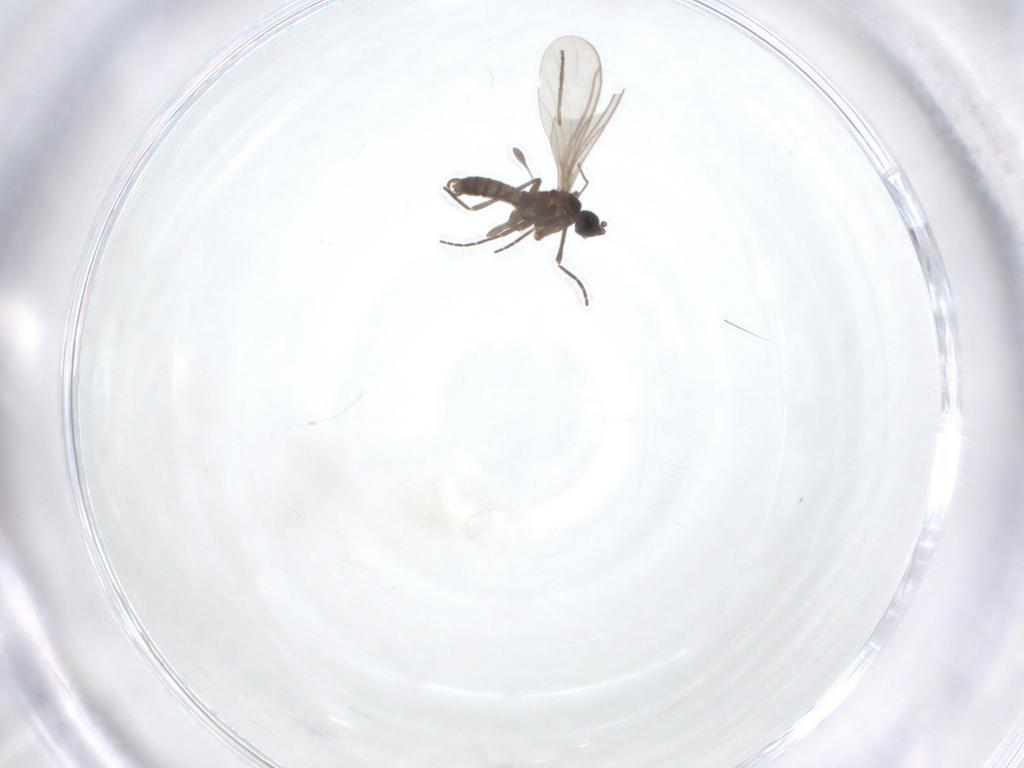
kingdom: Animalia
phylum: Arthropoda
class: Insecta
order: Diptera
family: Sciaridae
